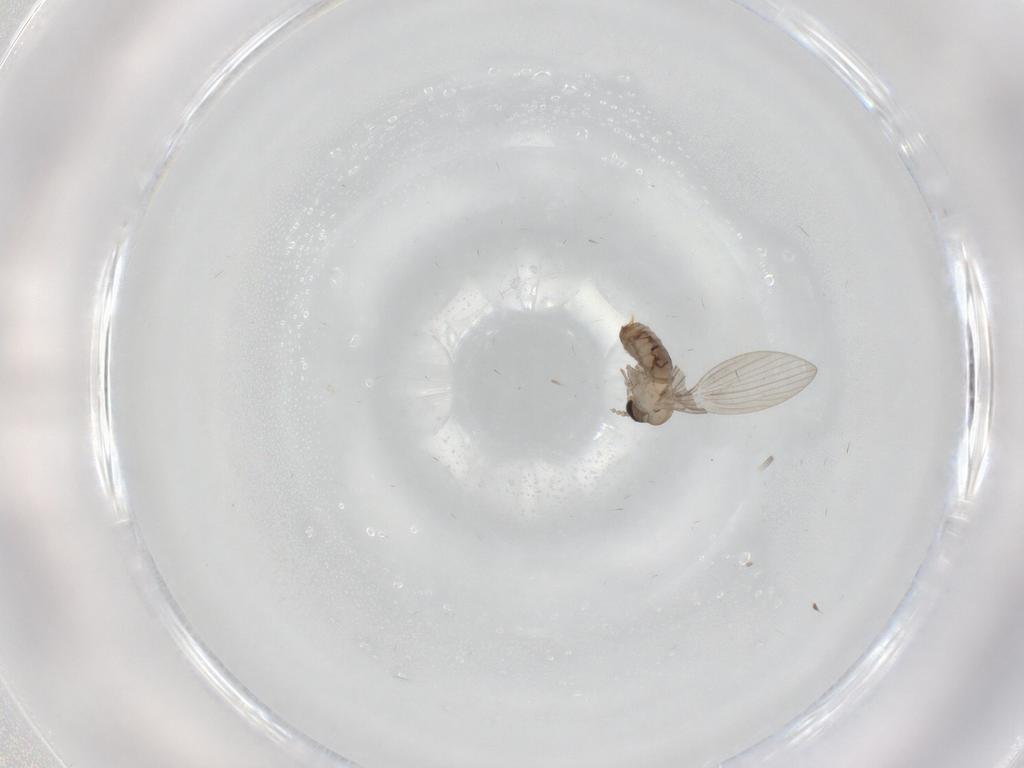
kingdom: Animalia
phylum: Arthropoda
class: Insecta
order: Diptera
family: Psychodidae
